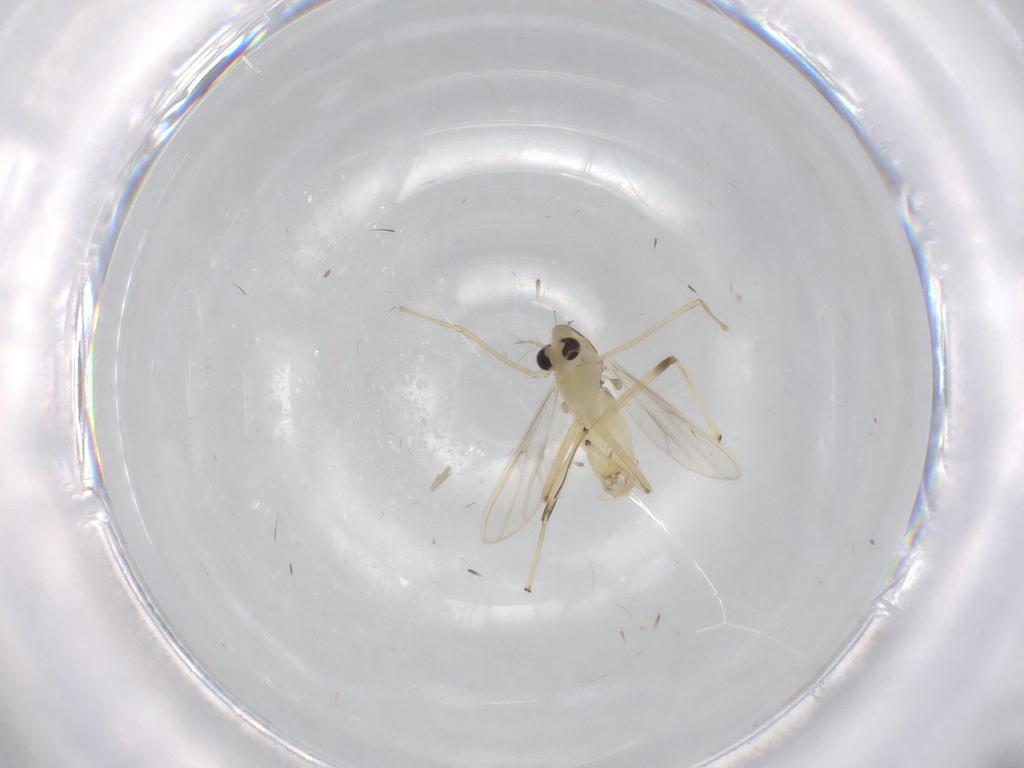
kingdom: Animalia
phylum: Arthropoda
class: Insecta
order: Diptera
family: Chironomidae
